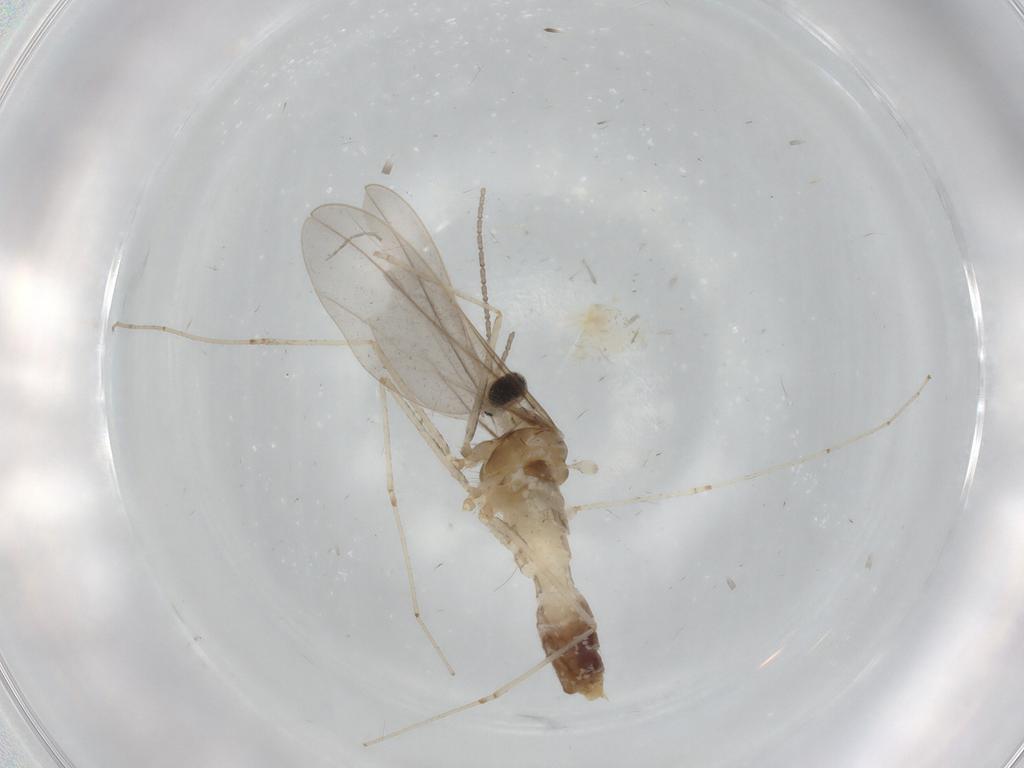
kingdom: Animalia
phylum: Arthropoda
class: Insecta
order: Diptera
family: Cecidomyiidae
